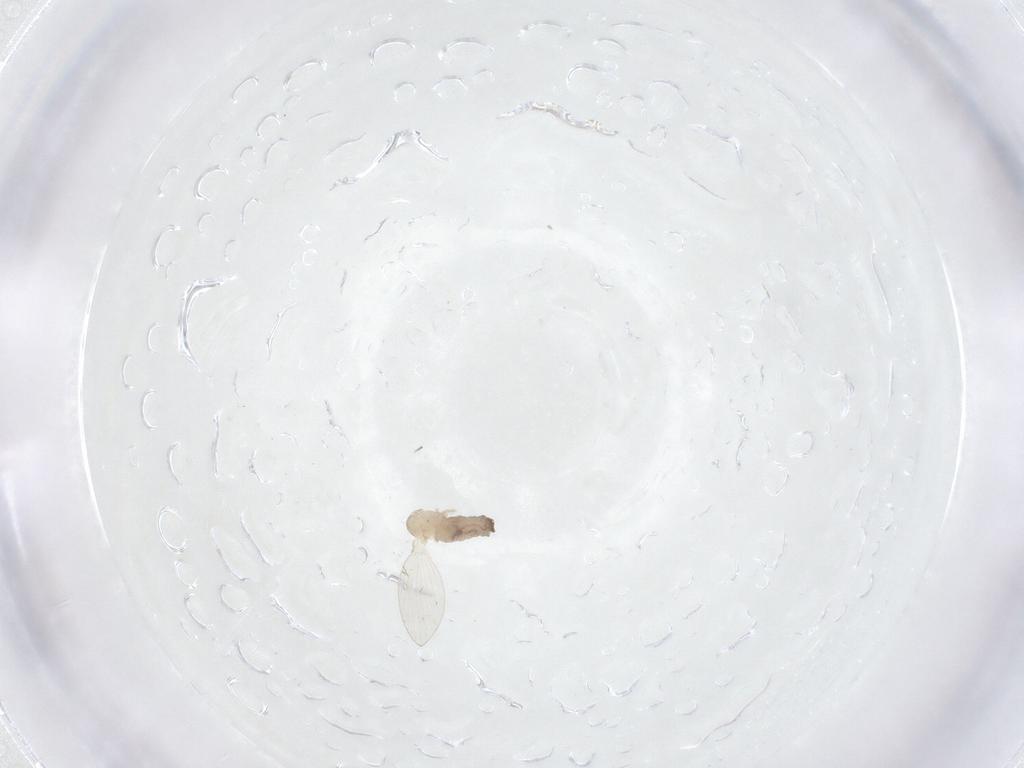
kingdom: Animalia
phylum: Arthropoda
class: Insecta
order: Diptera
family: Psychodidae
